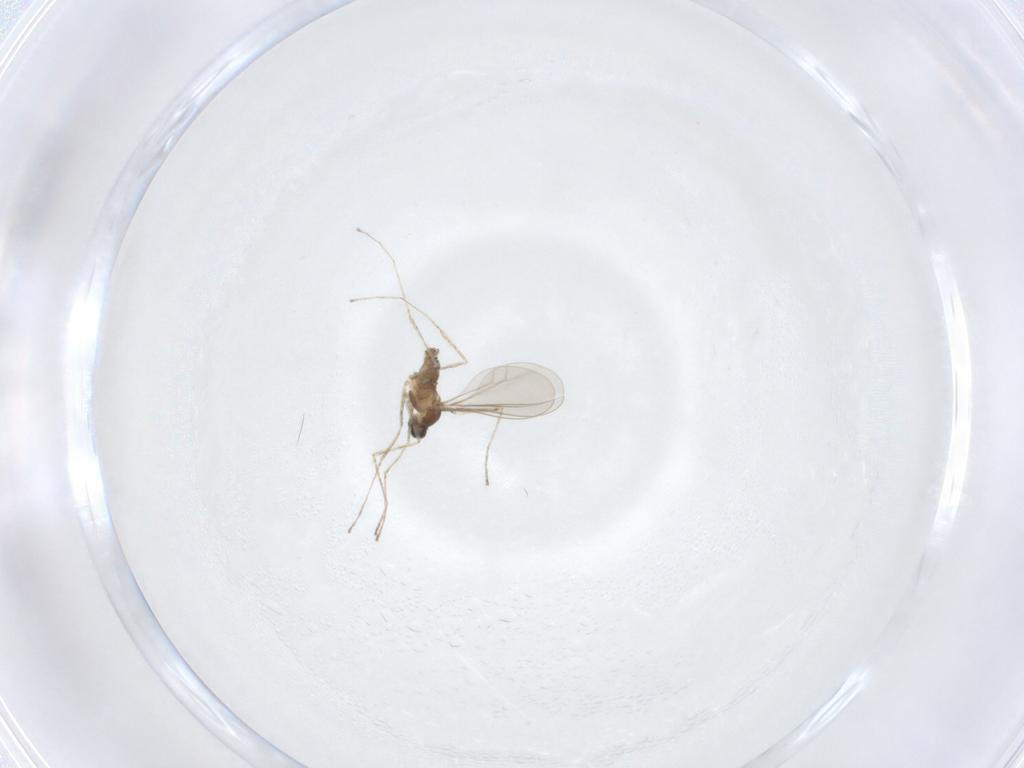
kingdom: Animalia
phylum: Arthropoda
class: Insecta
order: Diptera
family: Cecidomyiidae
